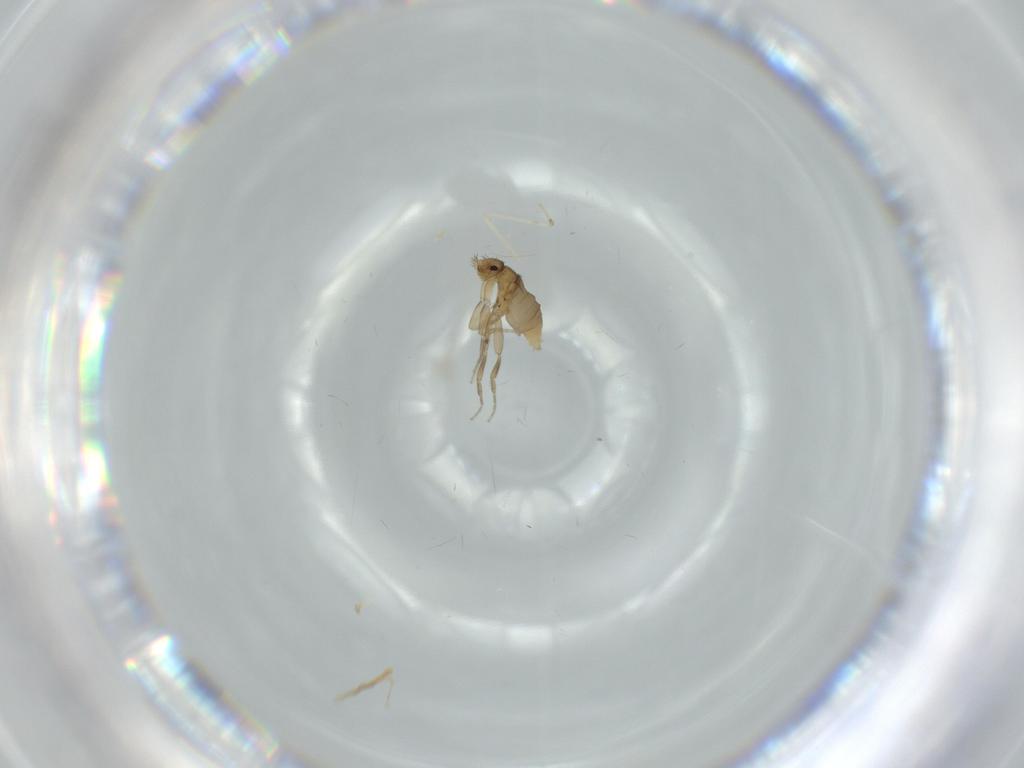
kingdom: Animalia
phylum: Arthropoda
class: Insecta
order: Diptera
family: Phoridae
